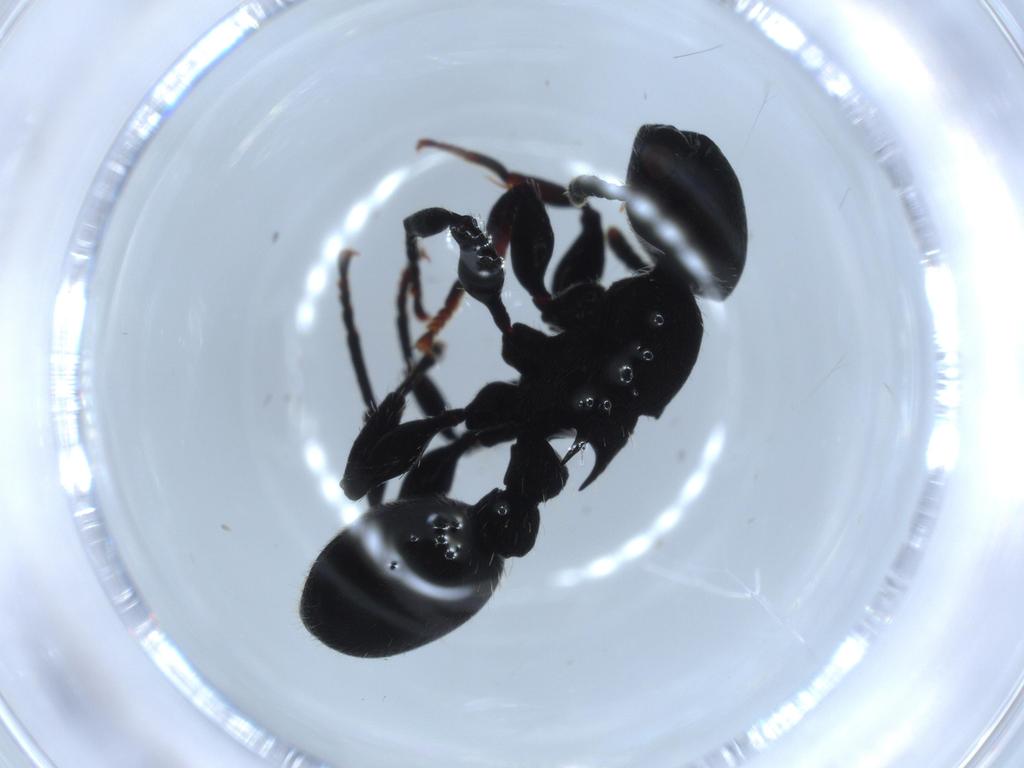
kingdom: Animalia
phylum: Arthropoda
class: Insecta
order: Hymenoptera
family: Formicidae
